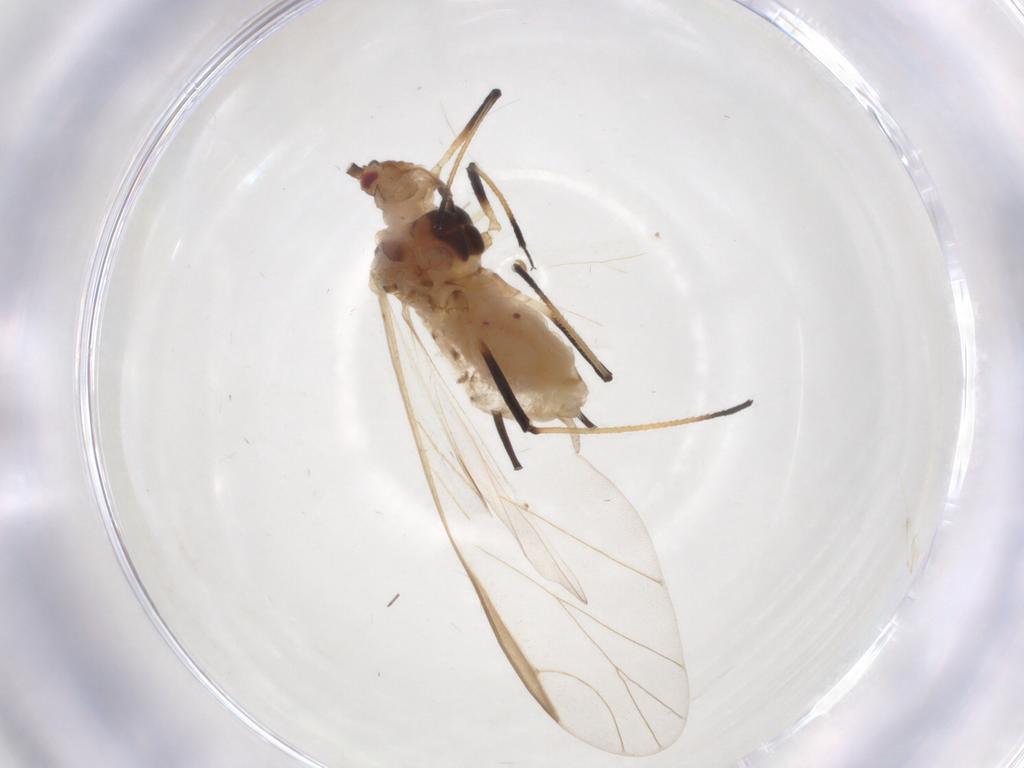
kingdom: Animalia
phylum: Arthropoda
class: Insecta
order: Hemiptera
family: Aphididae
